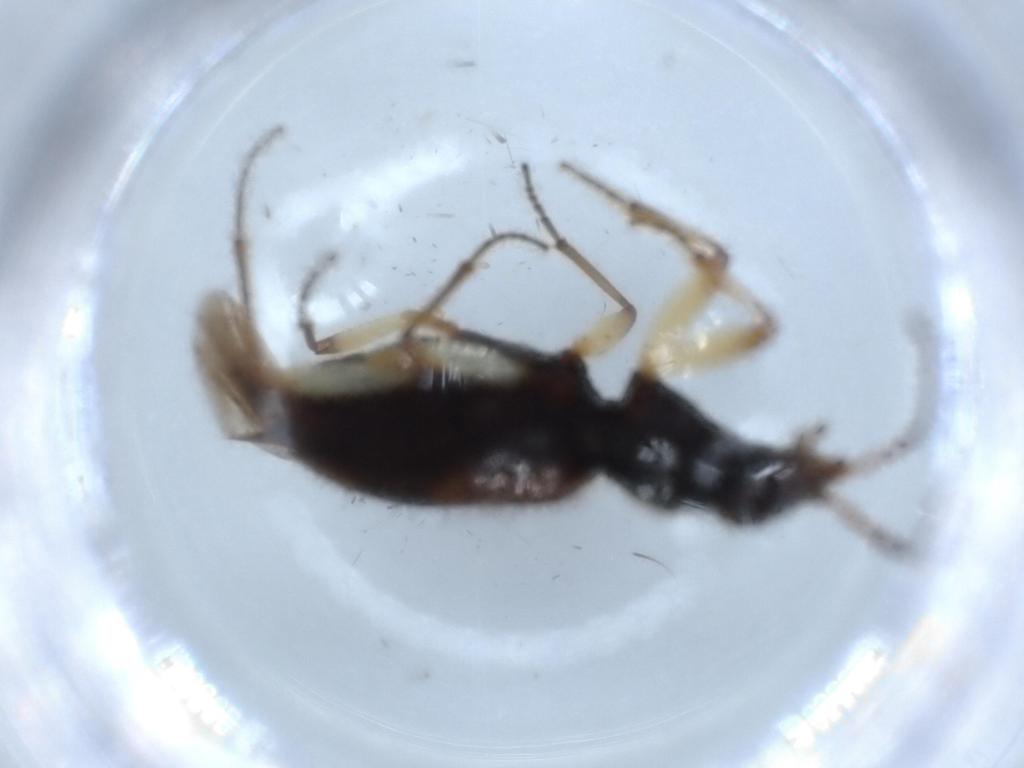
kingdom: Animalia
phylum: Arthropoda
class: Insecta
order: Coleoptera
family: Carabidae
